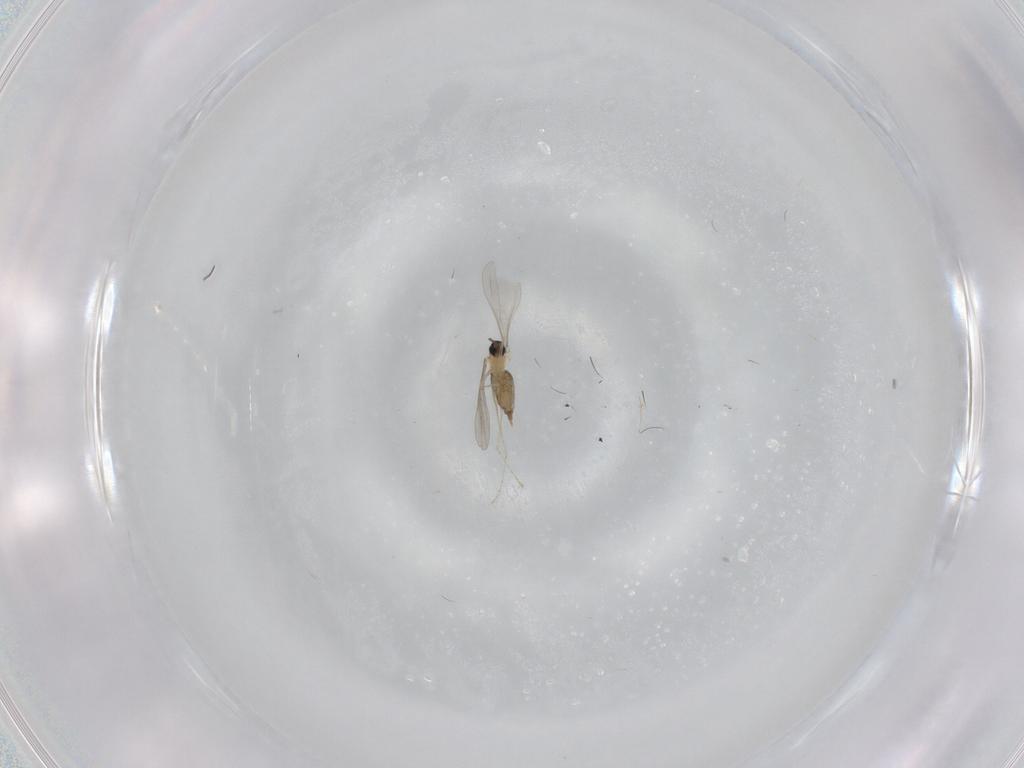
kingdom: Animalia
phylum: Arthropoda
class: Insecta
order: Diptera
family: Cecidomyiidae
